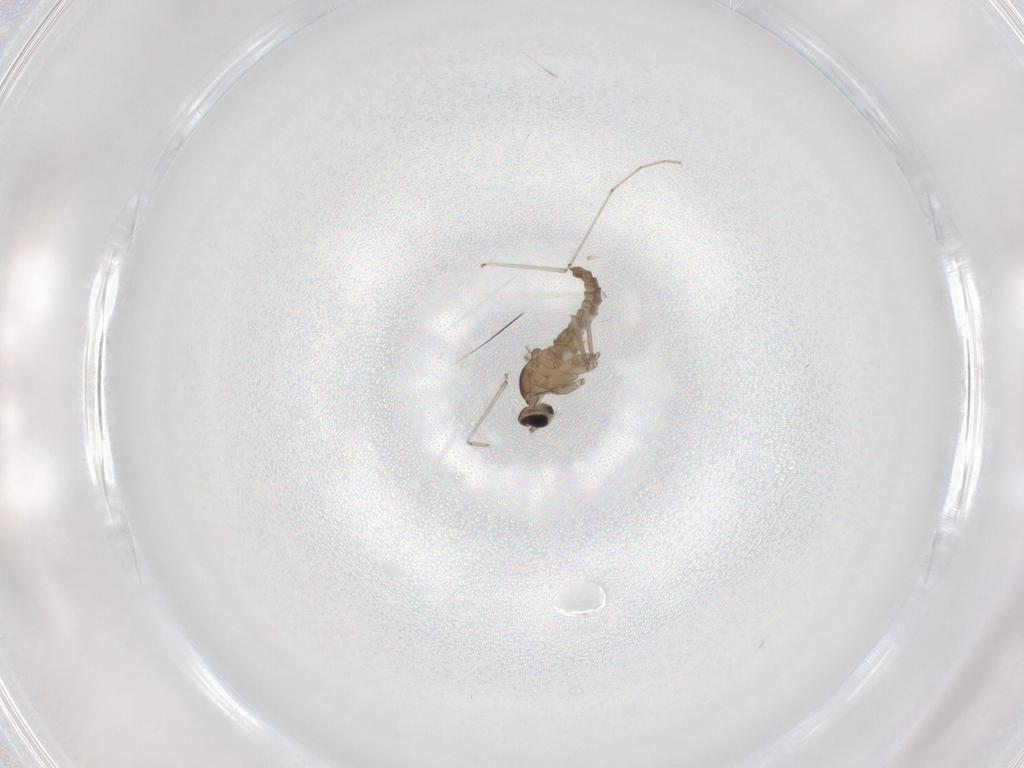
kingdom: Animalia
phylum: Arthropoda
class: Insecta
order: Diptera
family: Cecidomyiidae
